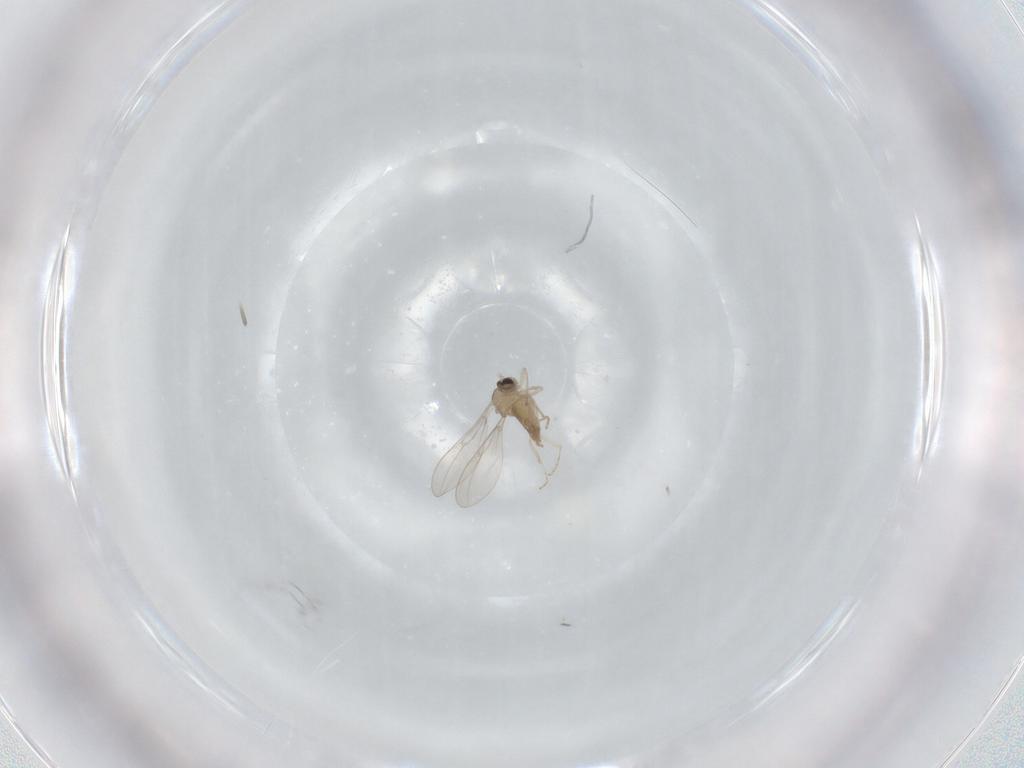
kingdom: Animalia
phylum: Arthropoda
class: Insecta
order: Diptera
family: Cecidomyiidae
